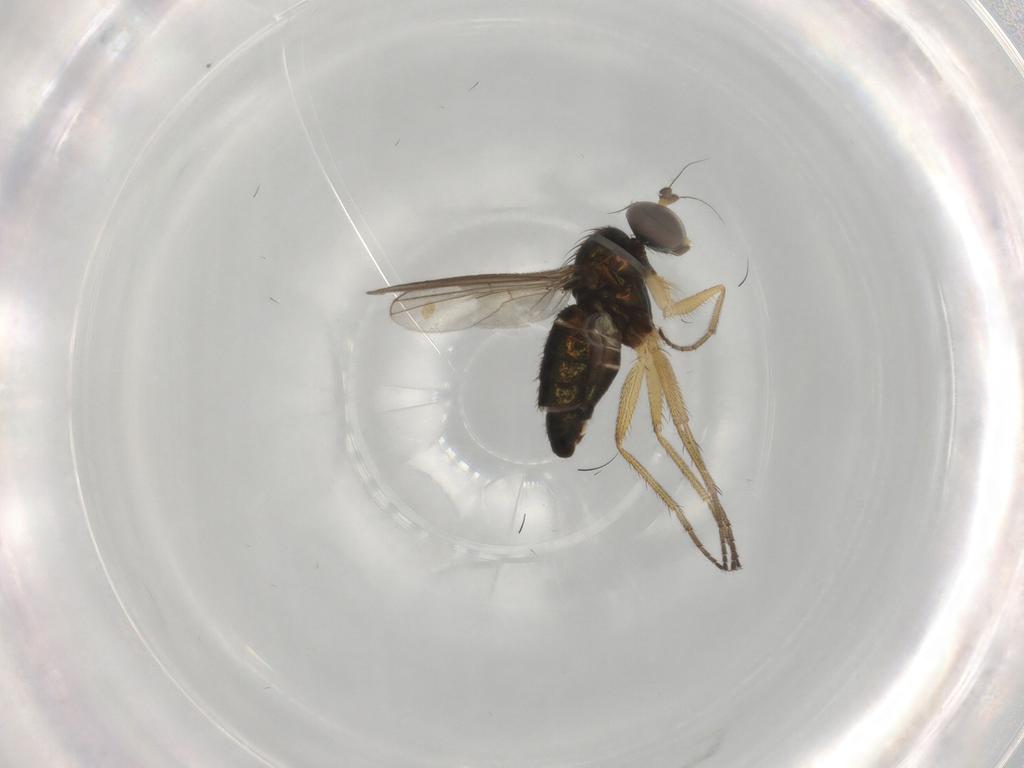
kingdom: Animalia
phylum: Arthropoda
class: Insecta
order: Diptera
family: Dolichopodidae
